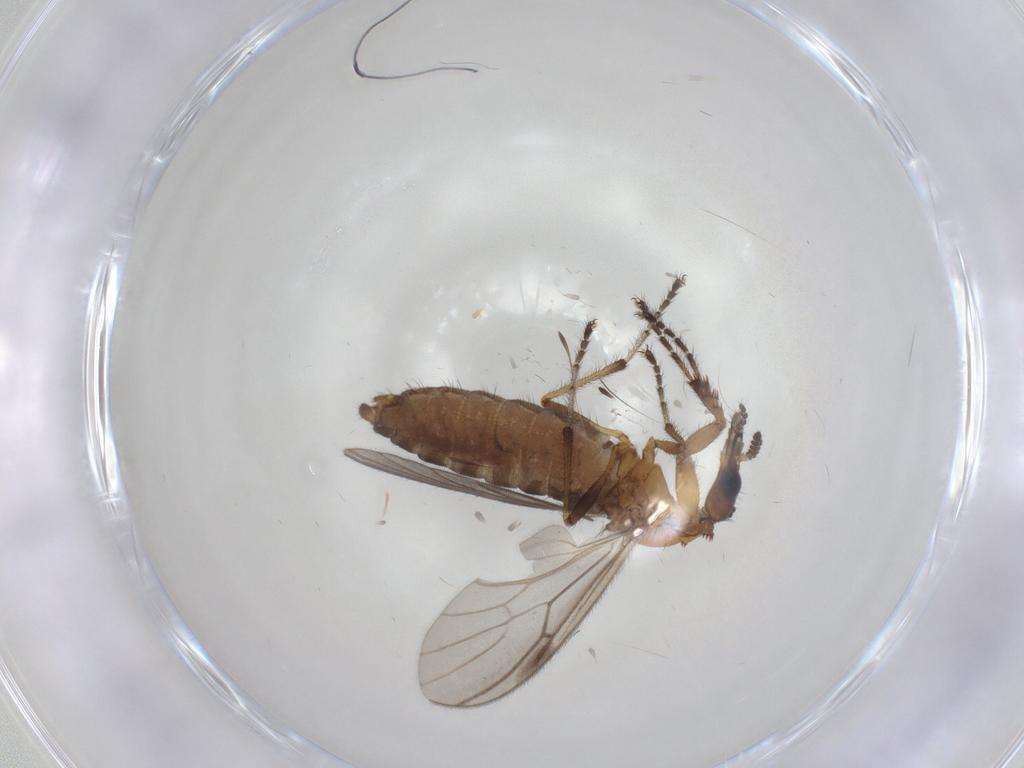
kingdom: Animalia
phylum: Arthropoda
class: Insecta
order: Diptera
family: Bibionidae
